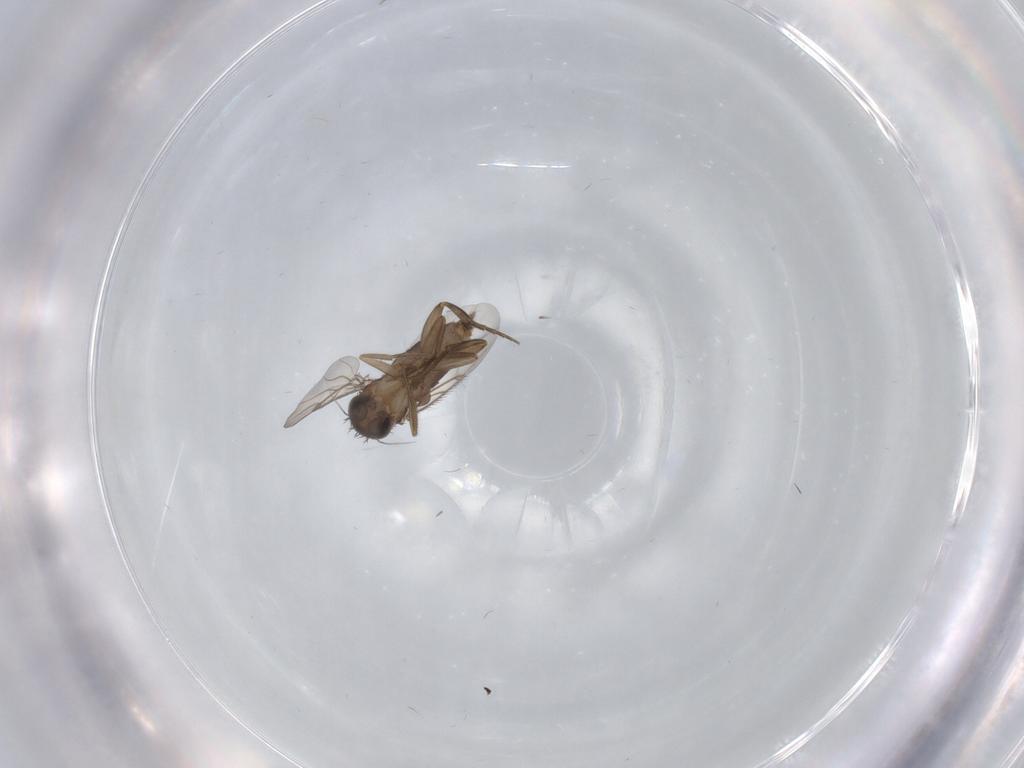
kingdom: Animalia
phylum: Arthropoda
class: Insecta
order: Diptera
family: Phoridae
